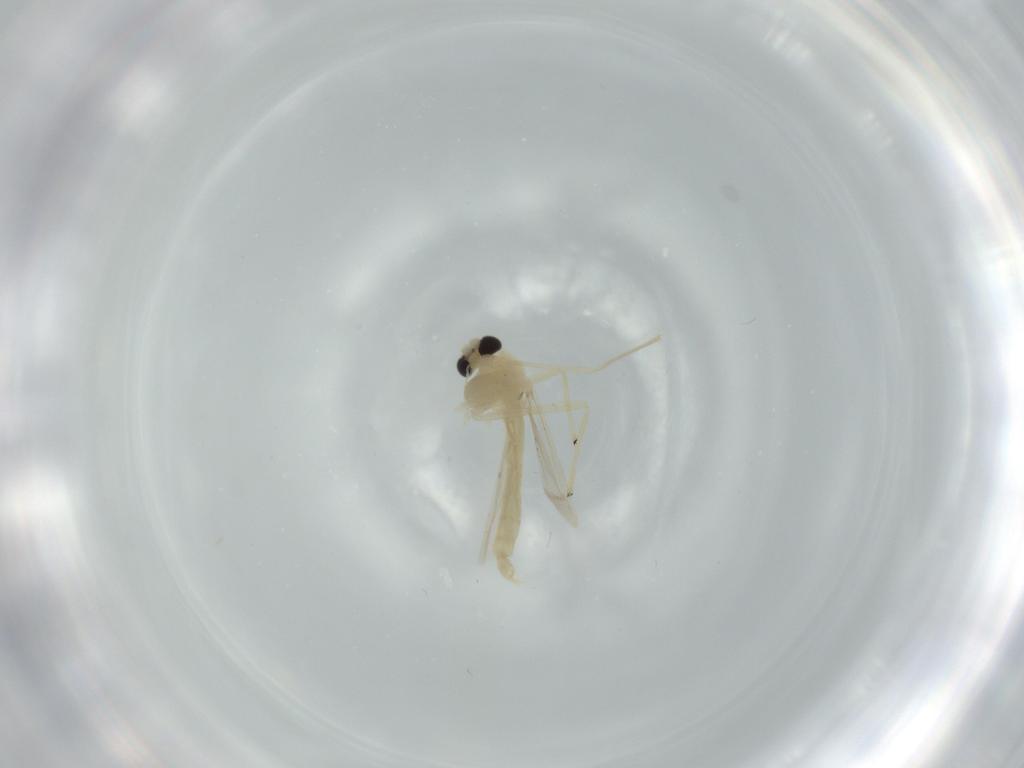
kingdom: Animalia
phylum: Arthropoda
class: Insecta
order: Diptera
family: Chironomidae
